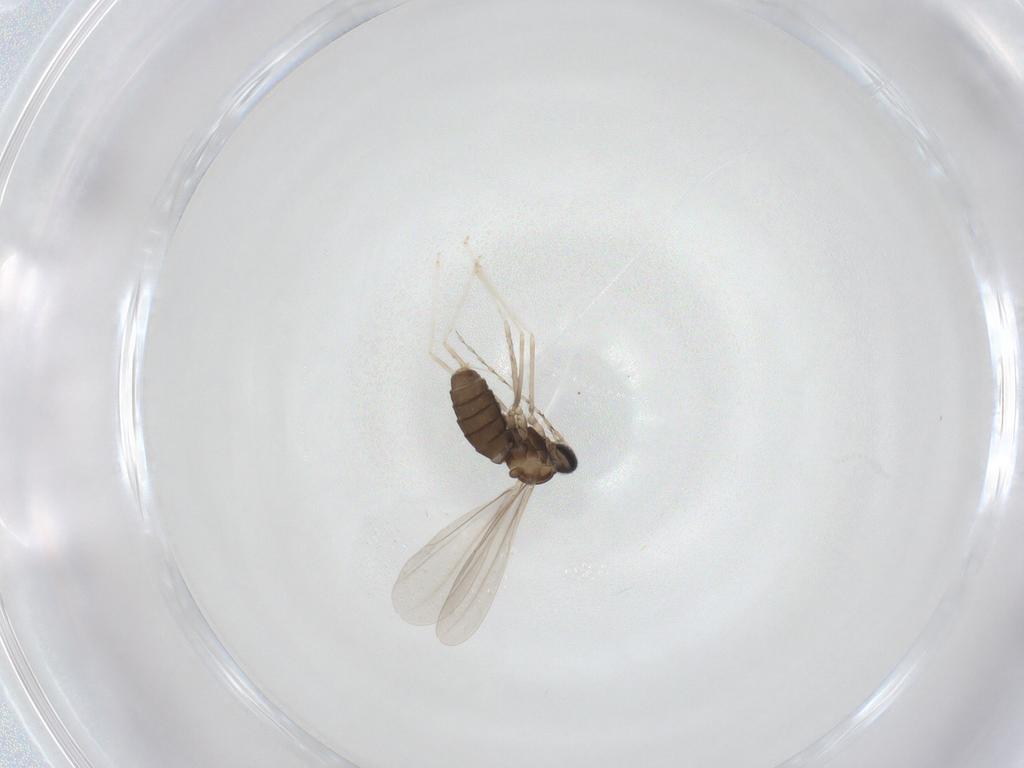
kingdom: Animalia
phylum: Arthropoda
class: Insecta
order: Diptera
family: Cecidomyiidae
